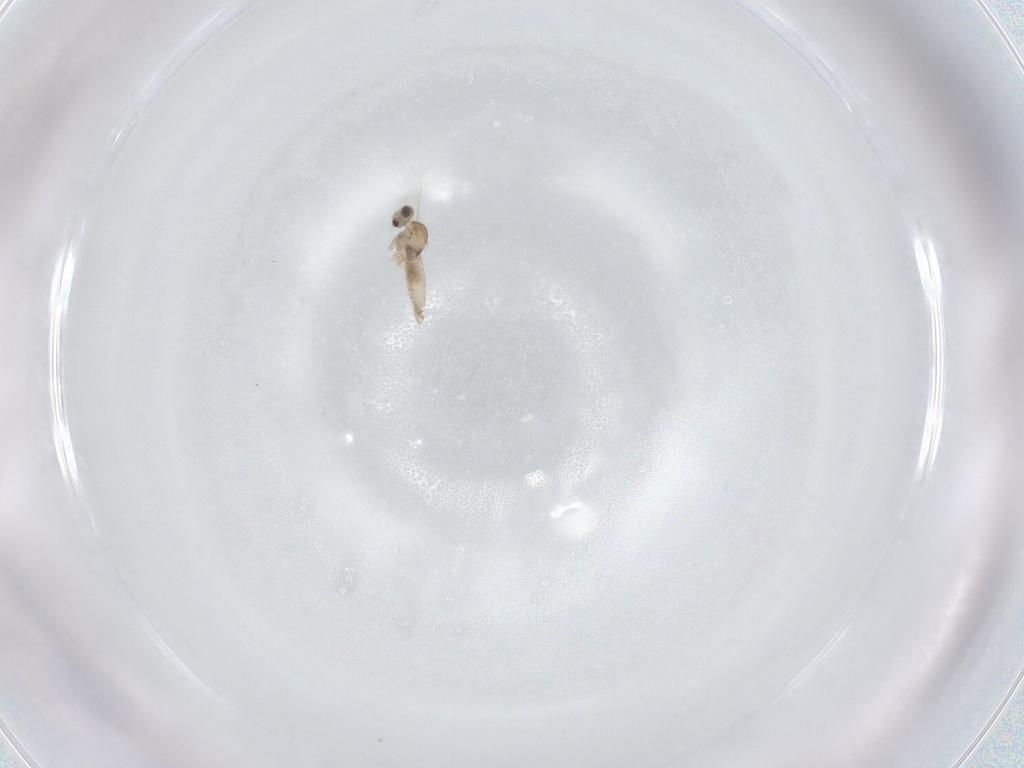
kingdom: Animalia
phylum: Arthropoda
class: Insecta
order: Diptera
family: Cecidomyiidae
